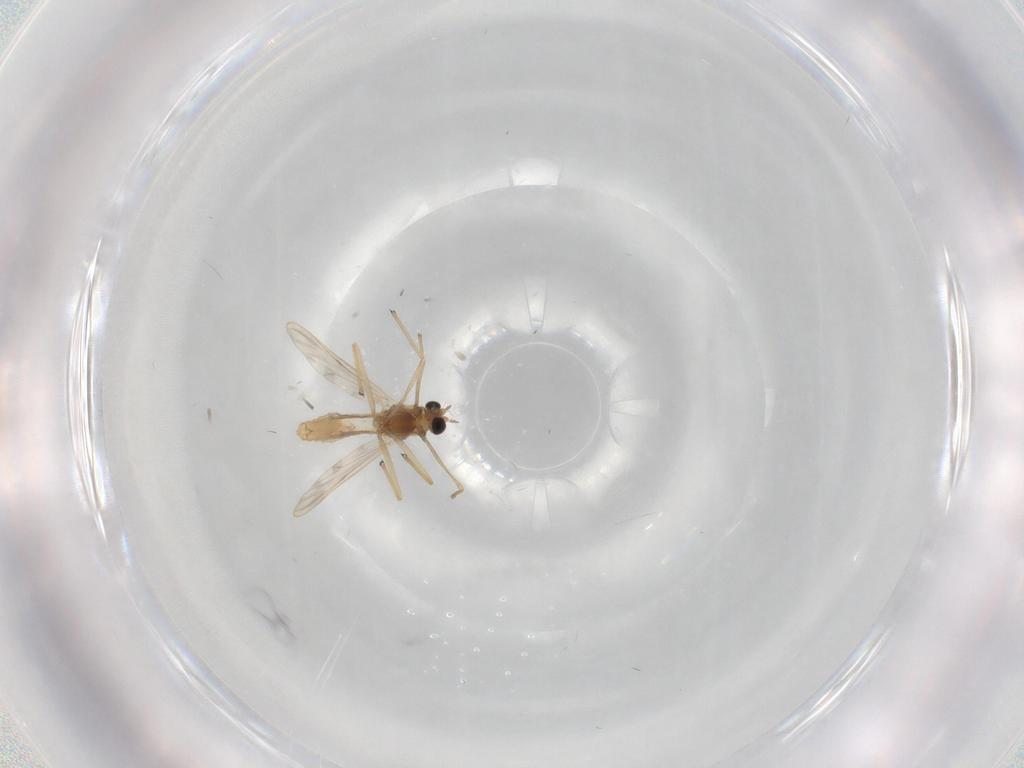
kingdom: Animalia
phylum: Arthropoda
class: Insecta
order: Diptera
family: Chironomidae
